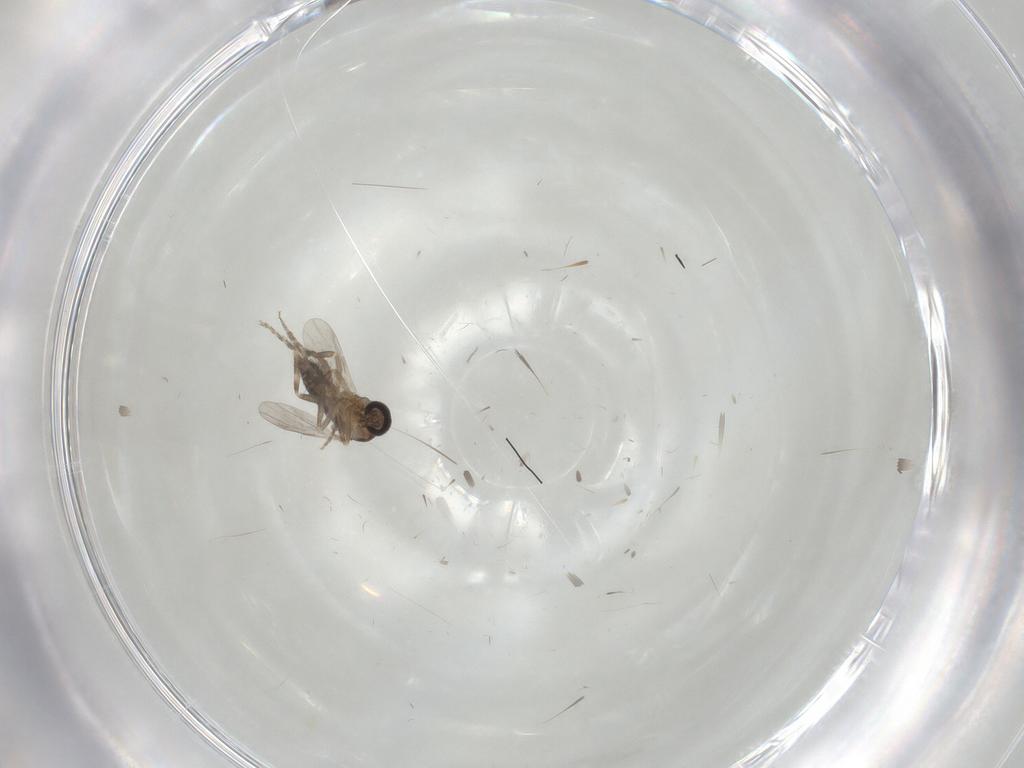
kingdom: Animalia
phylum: Arthropoda
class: Insecta
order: Diptera
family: Ceratopogonidae
